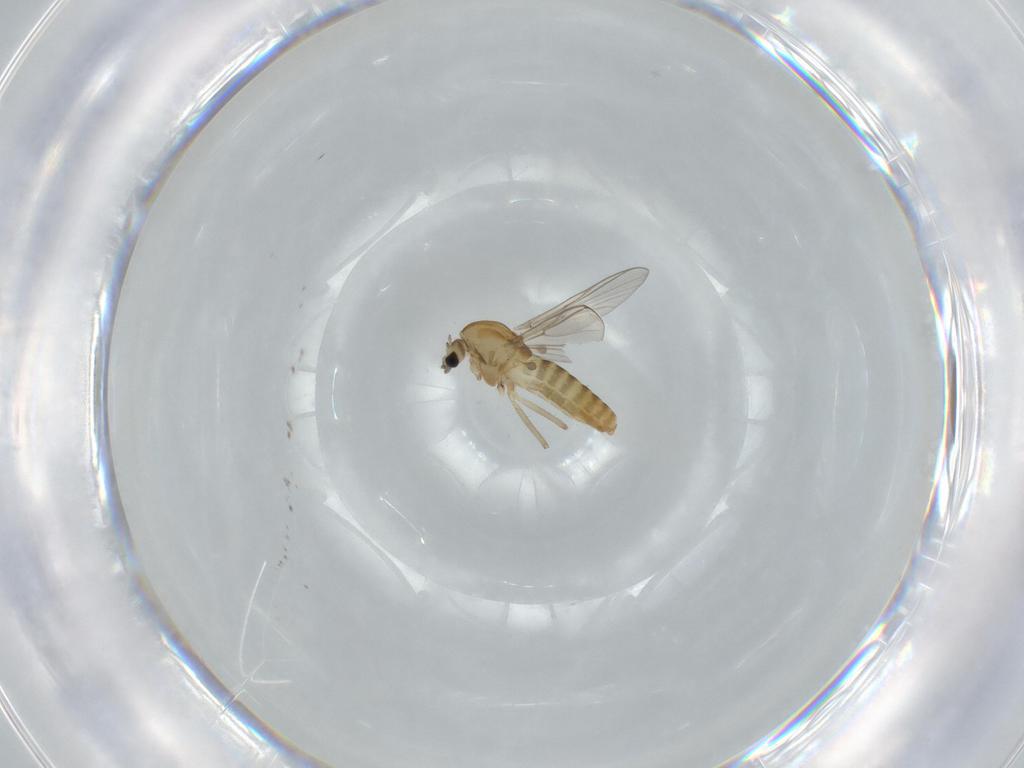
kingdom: Animalia
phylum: Arthropoda
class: Insecta
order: Diptera
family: Chironomidae
